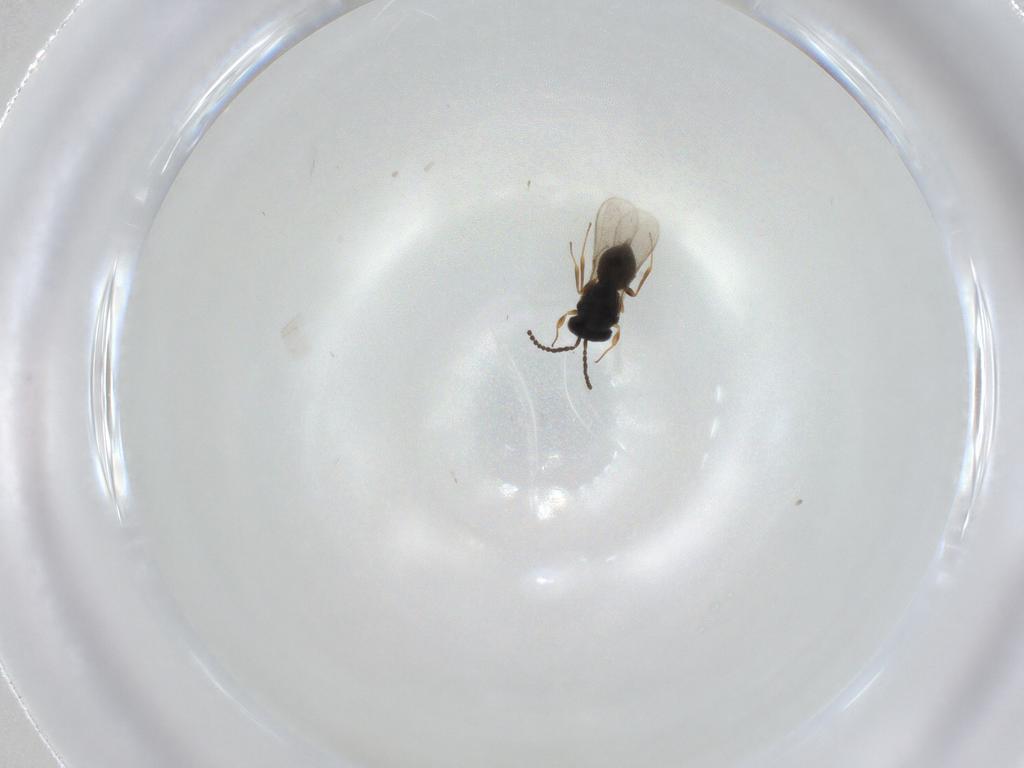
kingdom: Animalia
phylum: Arthropoda
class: Insecta
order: Hymenoptera
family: Scelionidae
